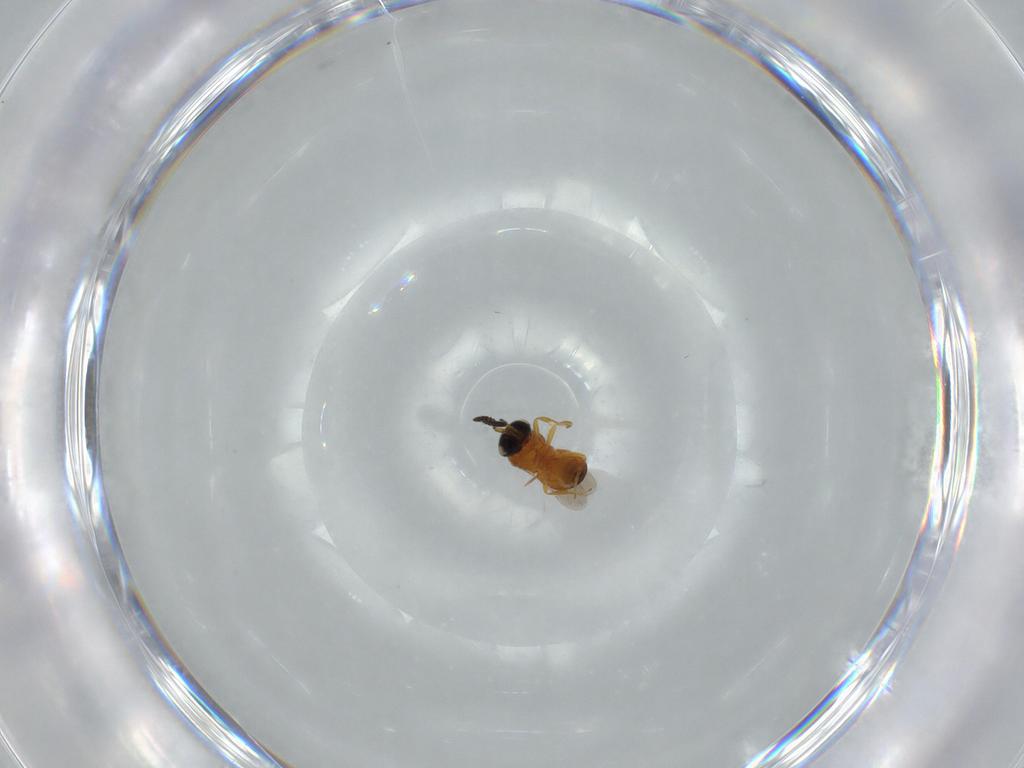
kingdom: Animalia
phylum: Arthropoda
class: Insecta
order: Hymenoptera
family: Scelionidae
